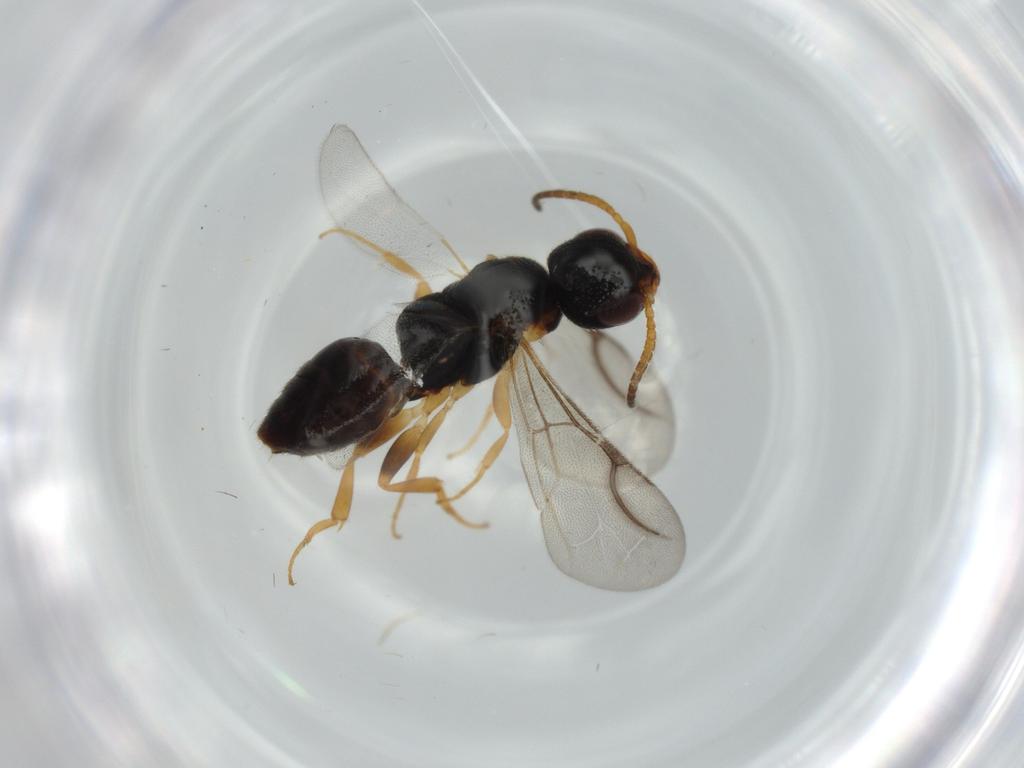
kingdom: Animalia
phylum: Arthropoda
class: Insecta
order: Hymenoptera
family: Bethylidae
